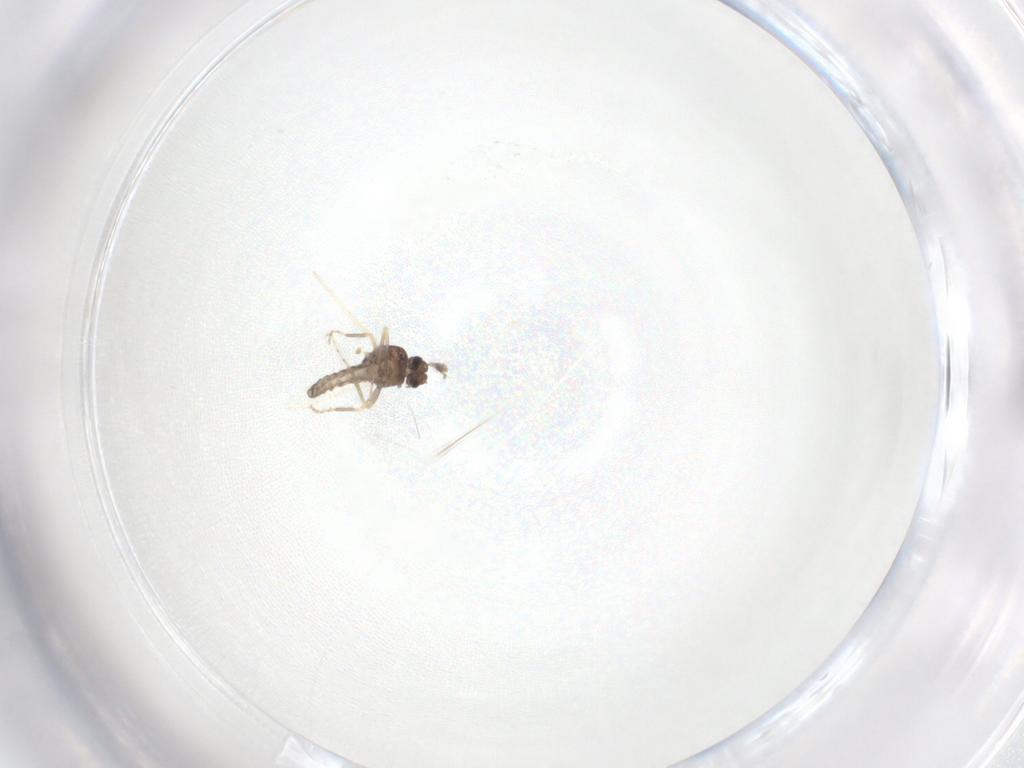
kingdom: Animalia
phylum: Arthropoda
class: Insecta
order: Diptera
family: Ceratopogonidae
